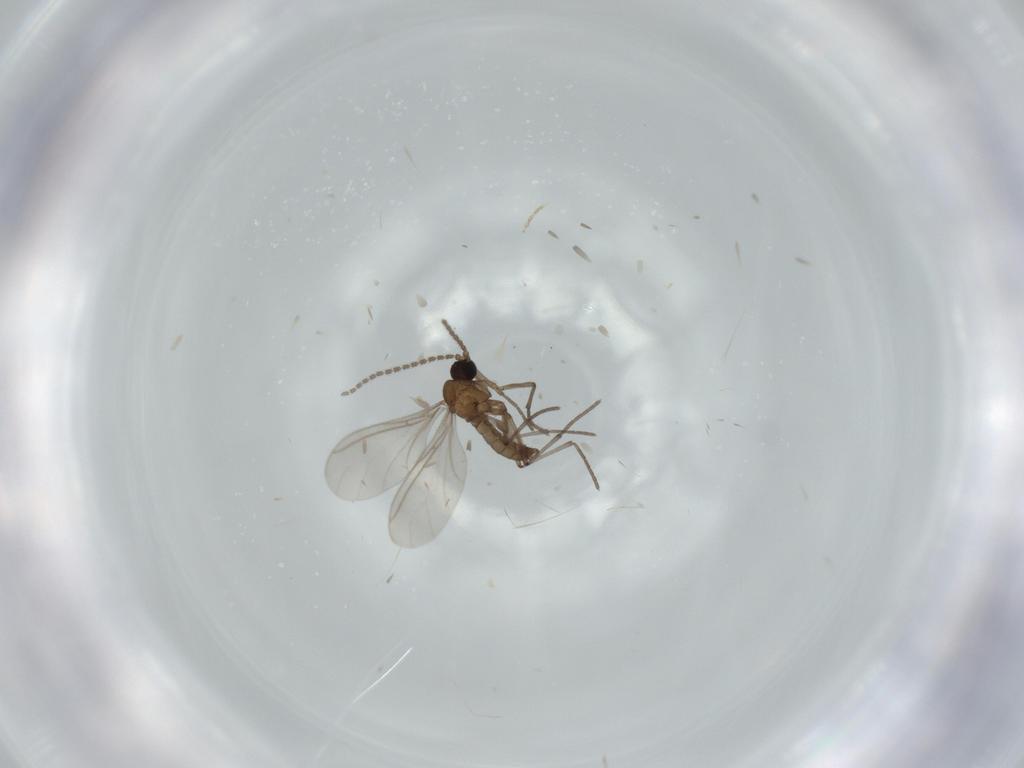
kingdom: Animalia
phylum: Arthropoda
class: Insecta
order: Diptera
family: Sciaridae
